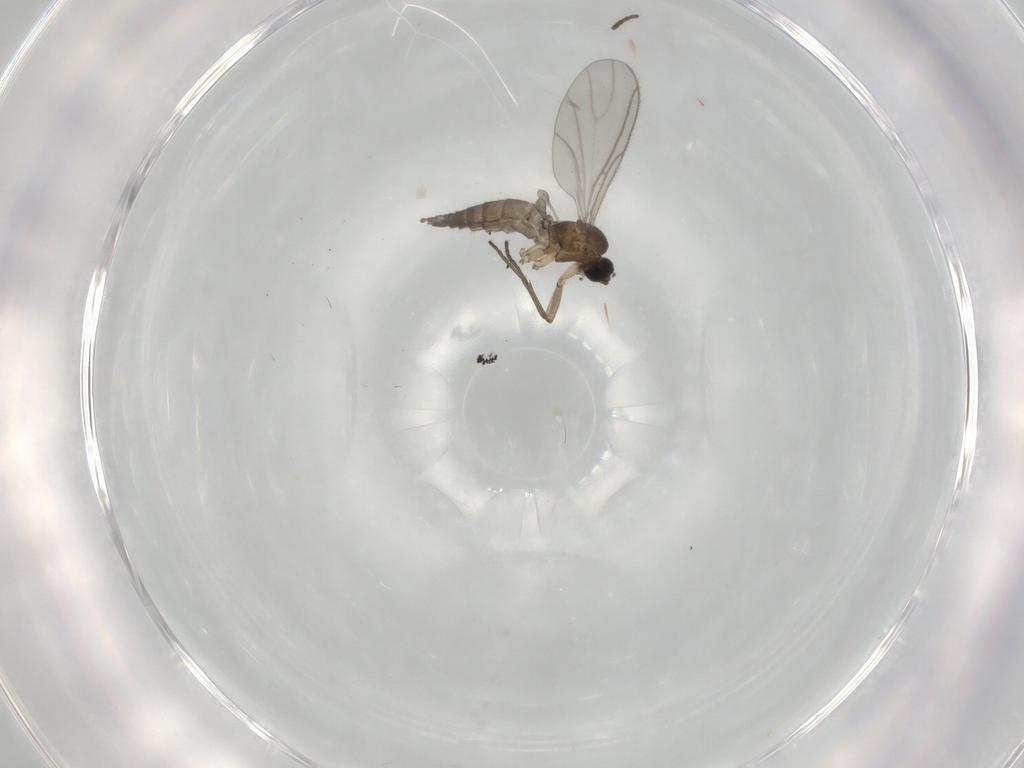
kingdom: Animalia
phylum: Arthropoda
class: Insecta
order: Diptera
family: Sciaridae
